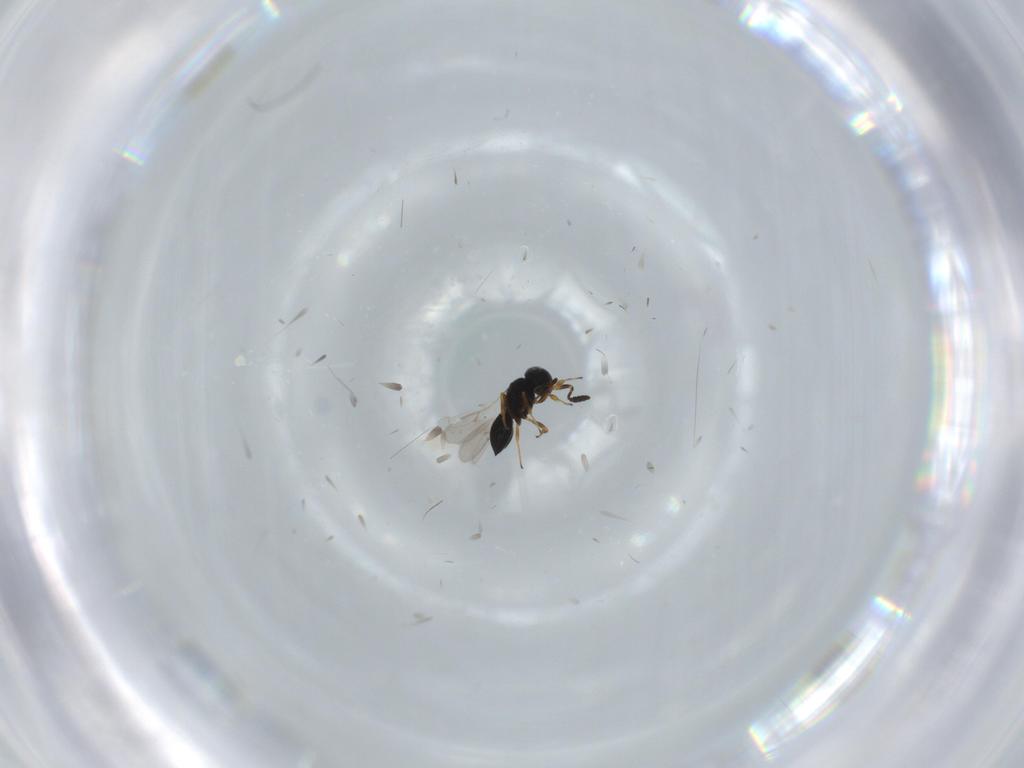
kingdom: Animalia
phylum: Arthropoda
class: Insecta
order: Hymenoptera
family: Scelionidae
